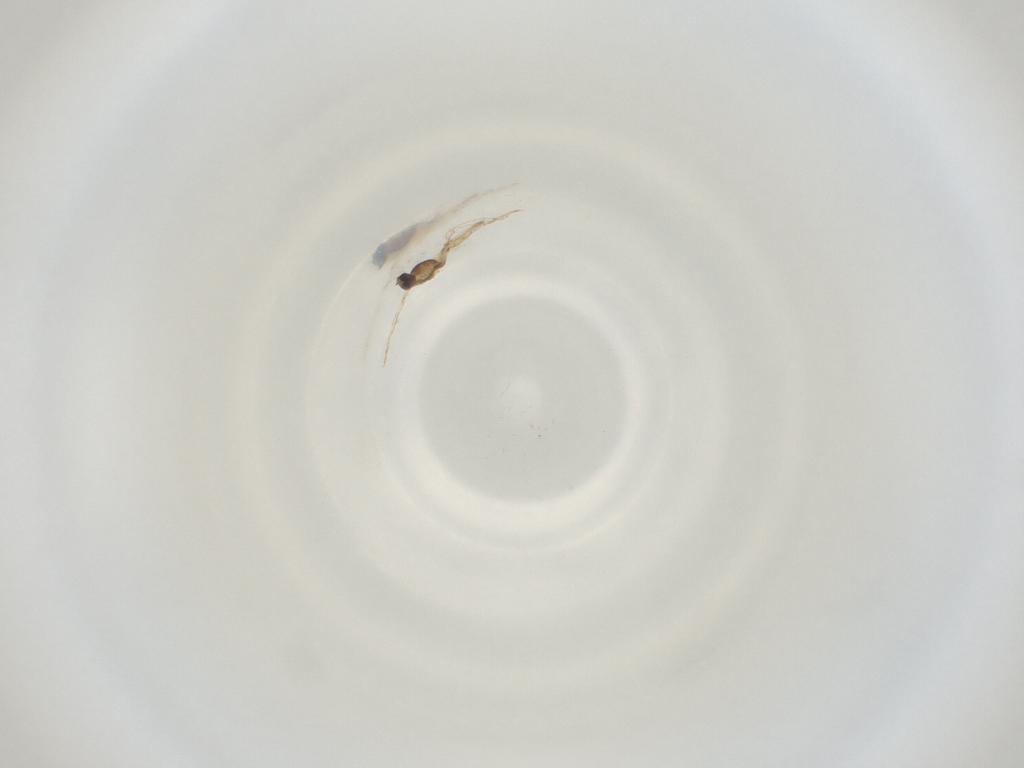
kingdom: Animalia
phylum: Arthropoda
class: Insecta
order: Diptera
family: Cecidomyiidae
